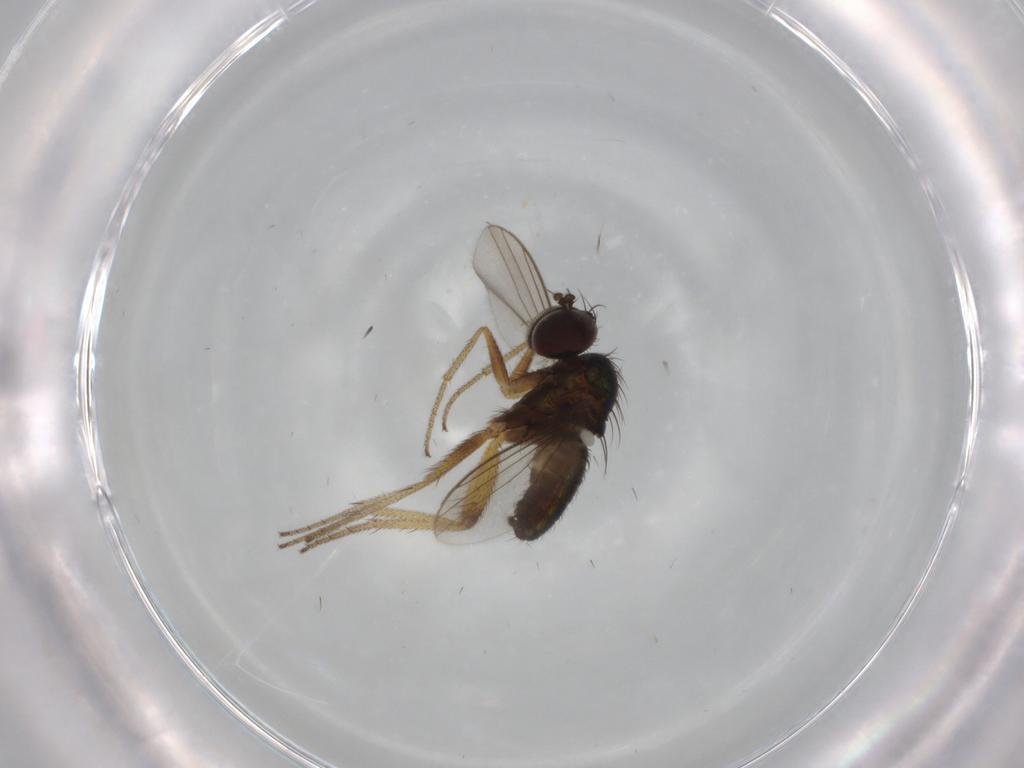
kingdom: Animalia
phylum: Arthropoda
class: Insecta
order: Diptera
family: Dolichopodidae
